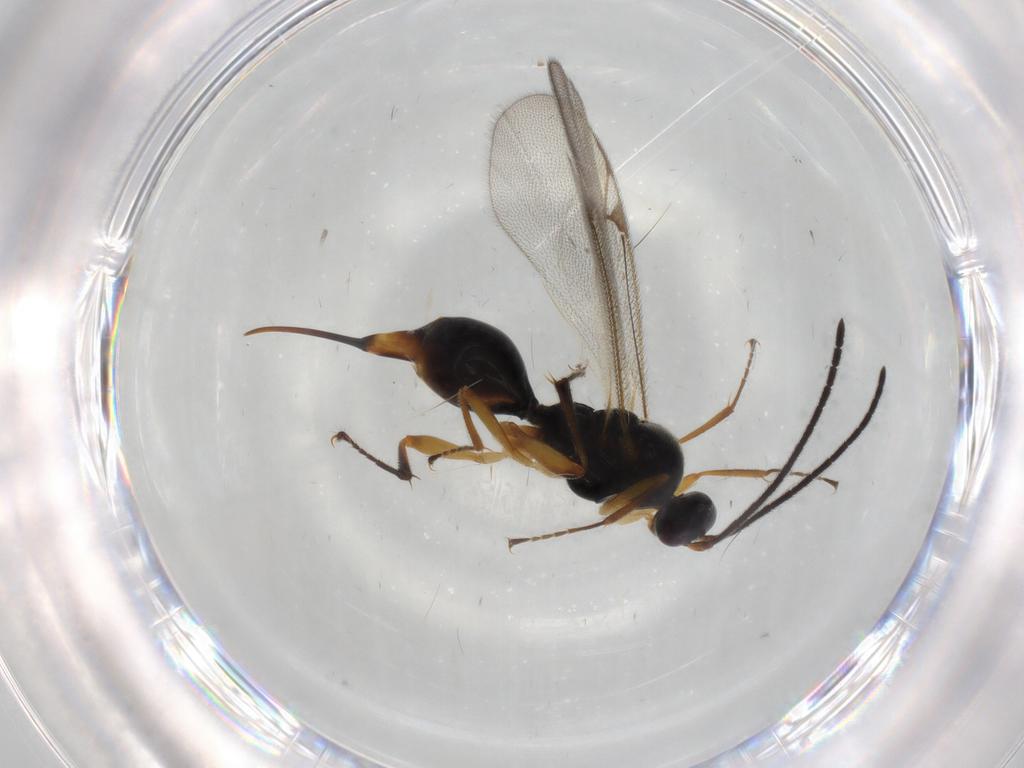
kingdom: Animalia
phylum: Arthropoda
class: Insecta
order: Hymenoptera
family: Proctotrupidae
